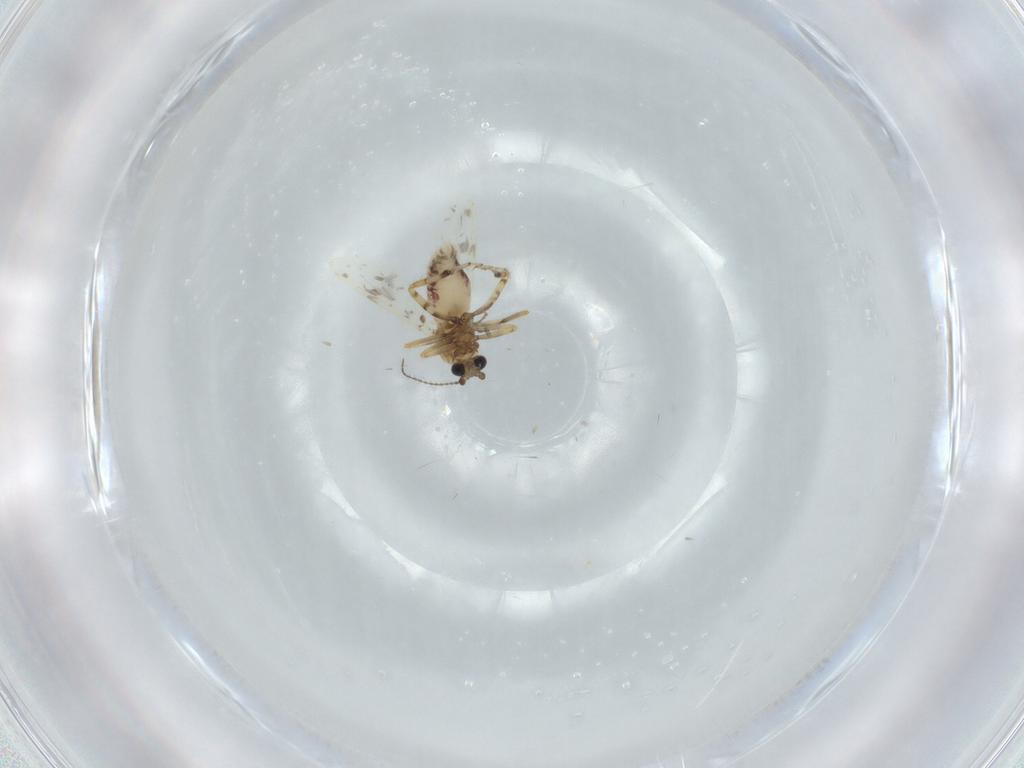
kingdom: Animalia
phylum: Arthropoda
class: Insecta
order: Diptera
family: Ceratopogonidae
